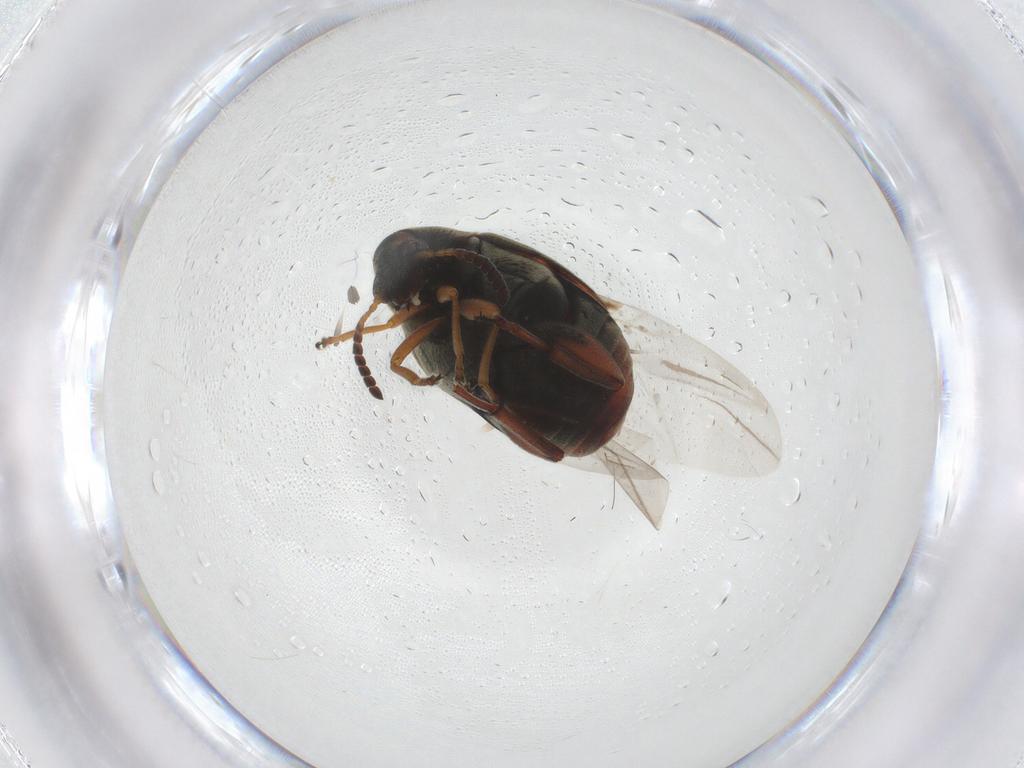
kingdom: Animalia
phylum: Arthropoda
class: Insecta
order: Coleoptera
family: Chrysomelidae
